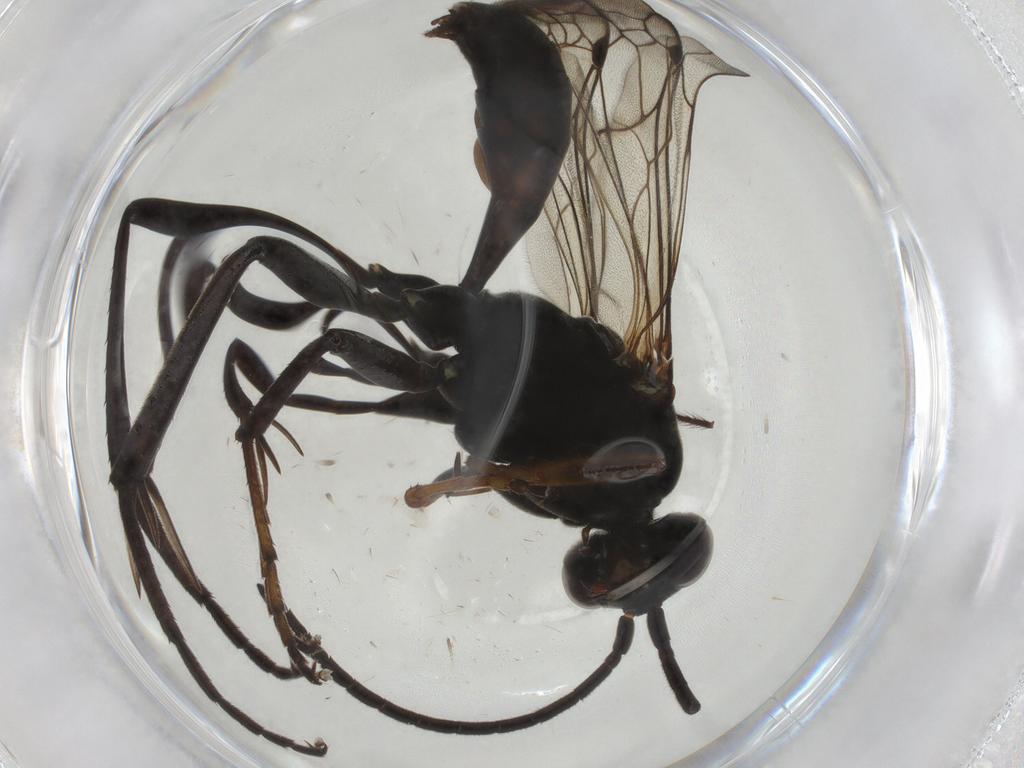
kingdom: Animalia
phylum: Arthropoda
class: Insecta
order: Hymenoptera
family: Pompilidae
